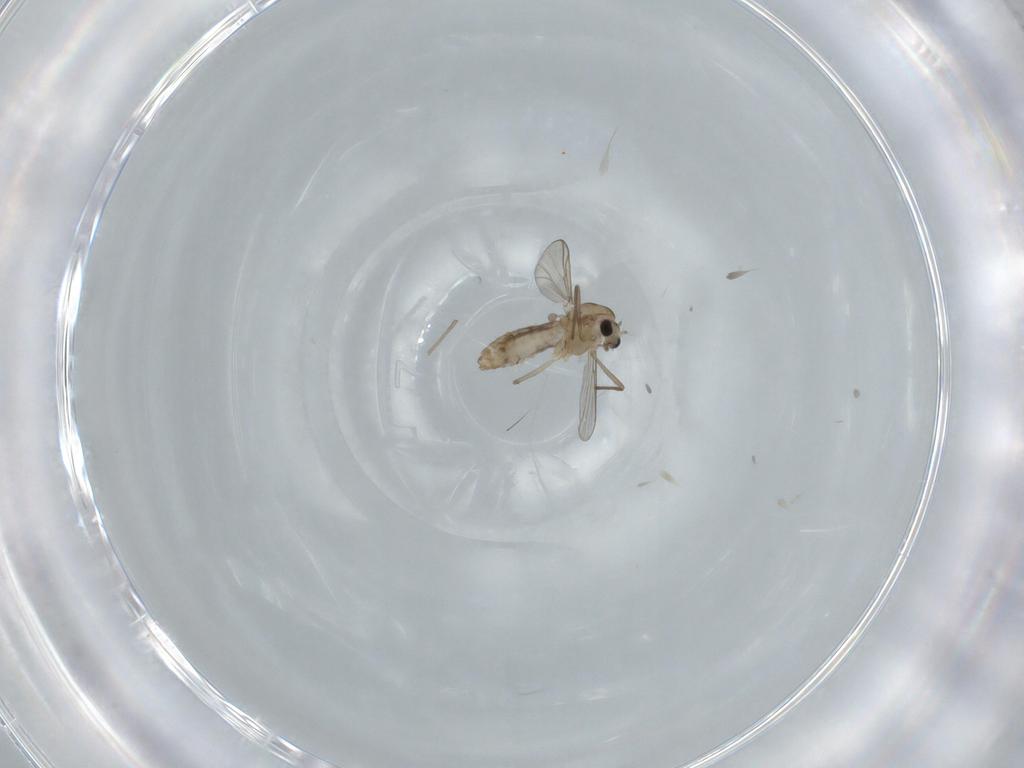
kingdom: Animalia
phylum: Arthropoda
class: Insecta
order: Diptera
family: Chironomidae
